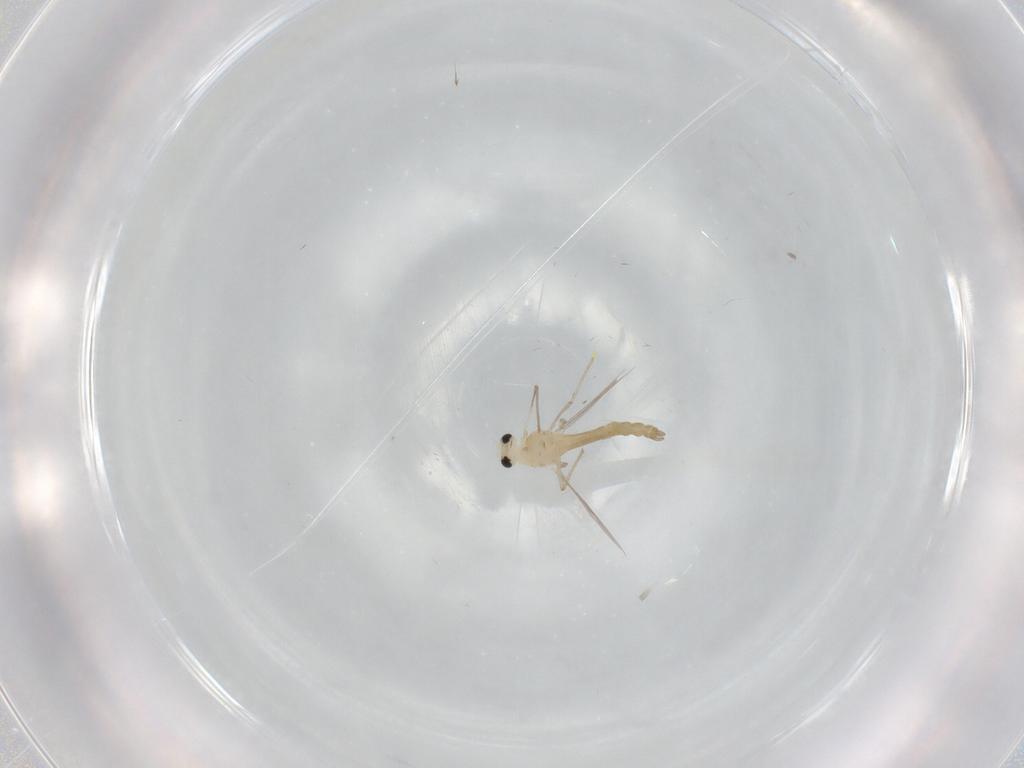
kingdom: Animalia
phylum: Arthropoda
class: Insecta
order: Diptera
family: Chironomidae
